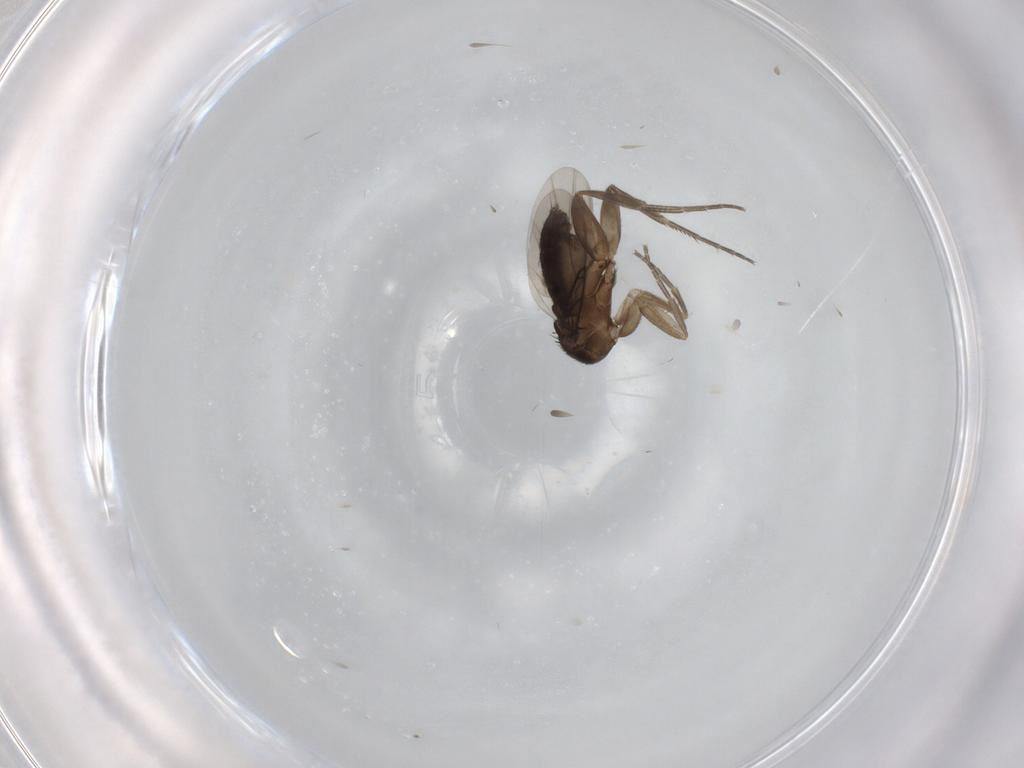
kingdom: Animalia
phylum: Arthropoda
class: Insecta
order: Diptera
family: Phoridae
